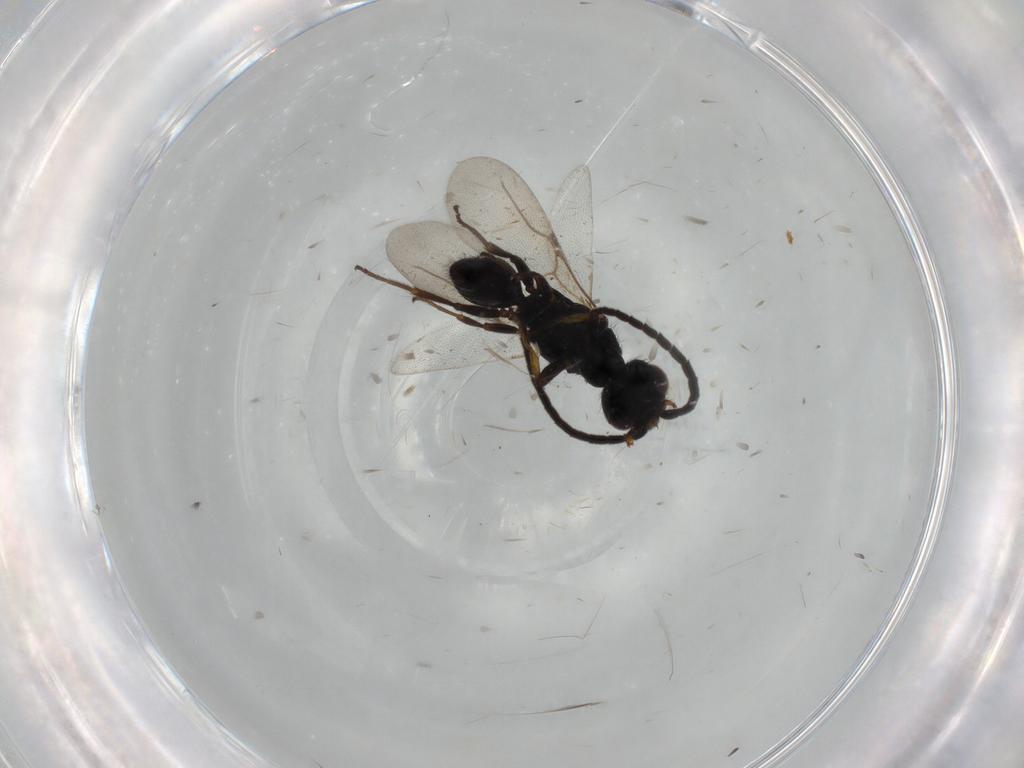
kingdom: Animalia
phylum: Arthropoda
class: Insecta
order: Hymenoptera
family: Bethylidae
